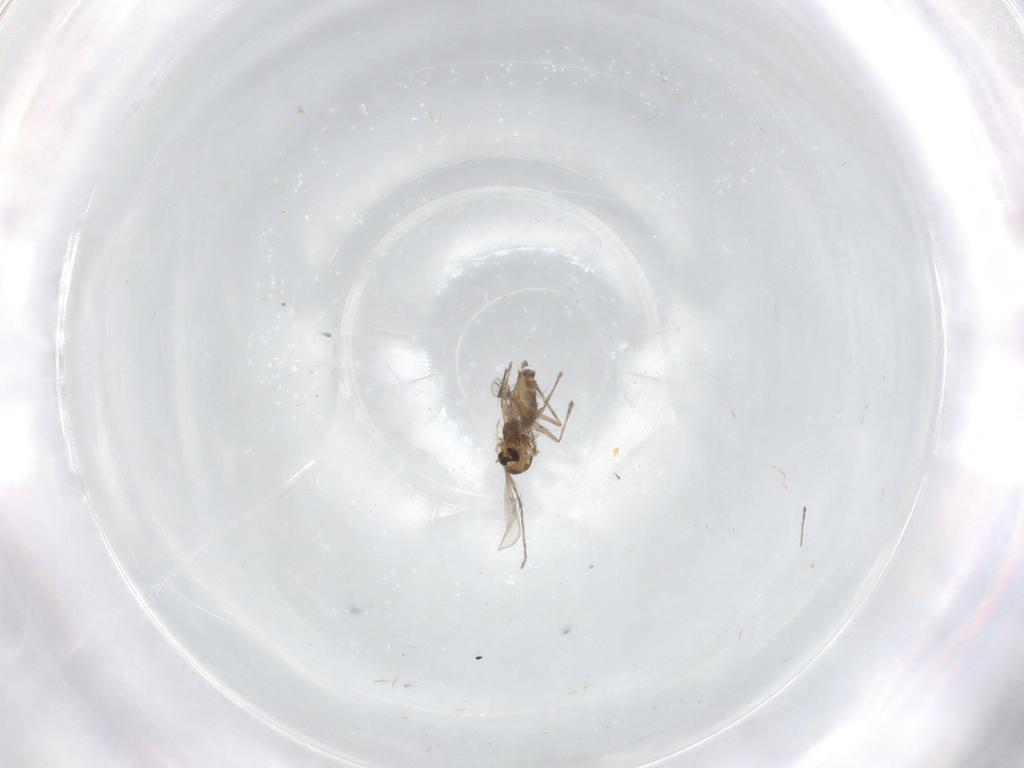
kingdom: Animalia
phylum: Arthropoda
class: Insecta
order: Diptera
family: Chironomidae
